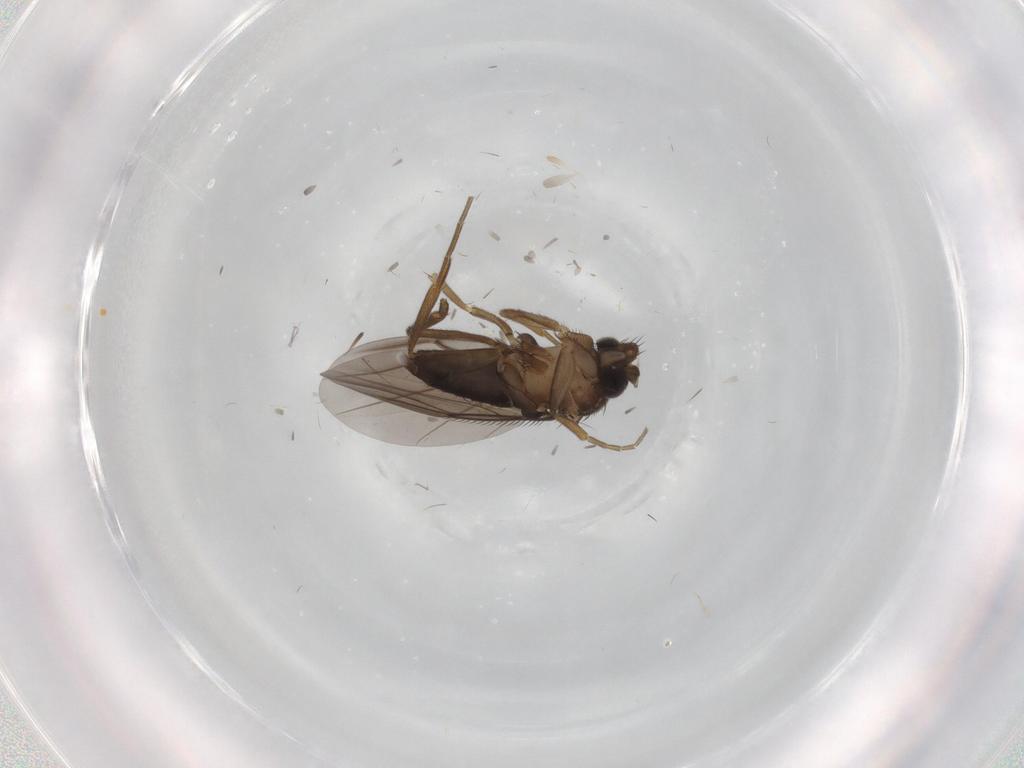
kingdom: Animalia
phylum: Arthropoda
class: Insecta
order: Diptera
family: Phoridae
